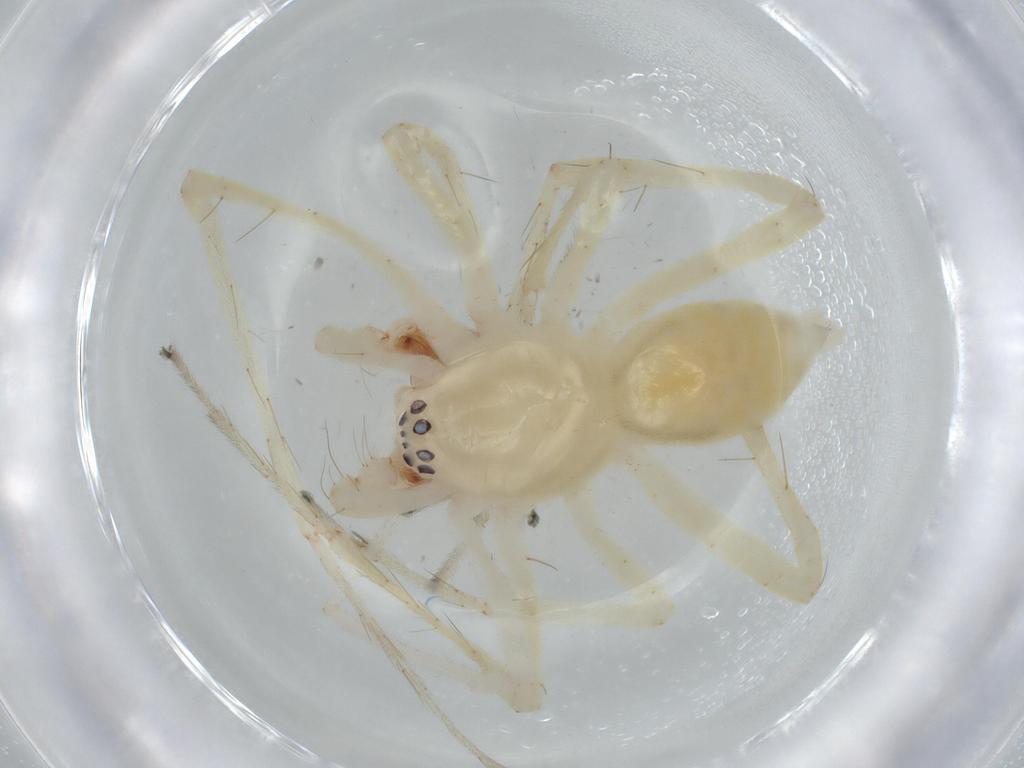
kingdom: Animalia
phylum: Arthropoda
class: Arachnida
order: Araneae
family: Anyphaenidae
